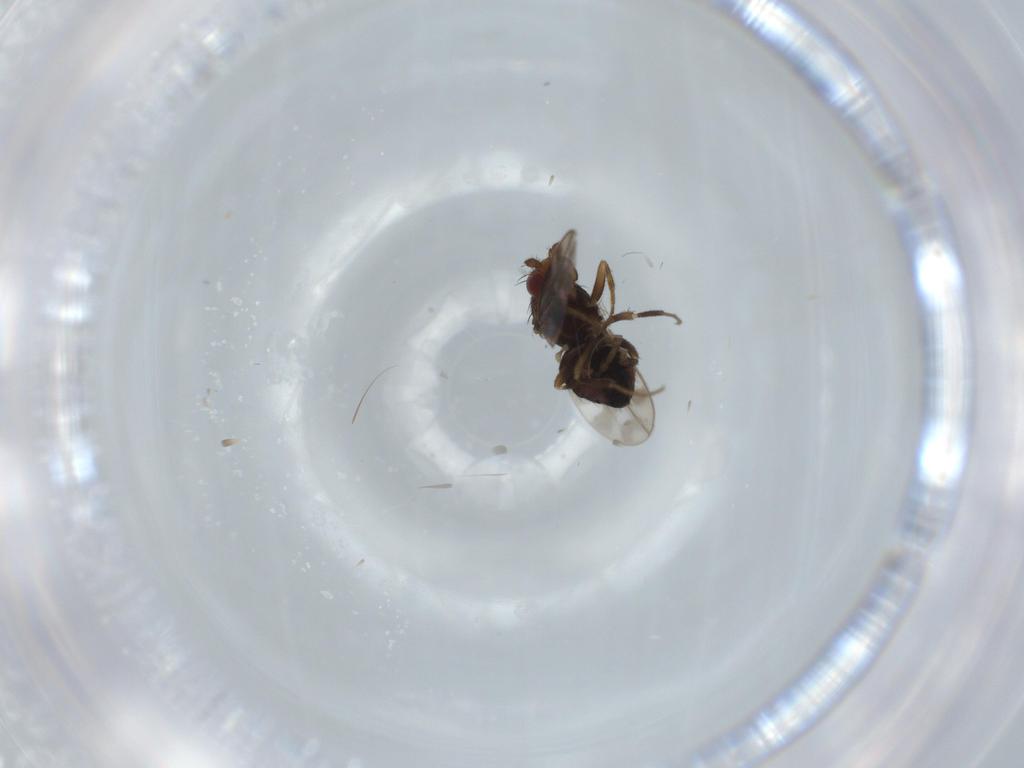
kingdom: Animalia
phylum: Arthropoda
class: Insecta
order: Diptera
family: Sphaeroceridae
